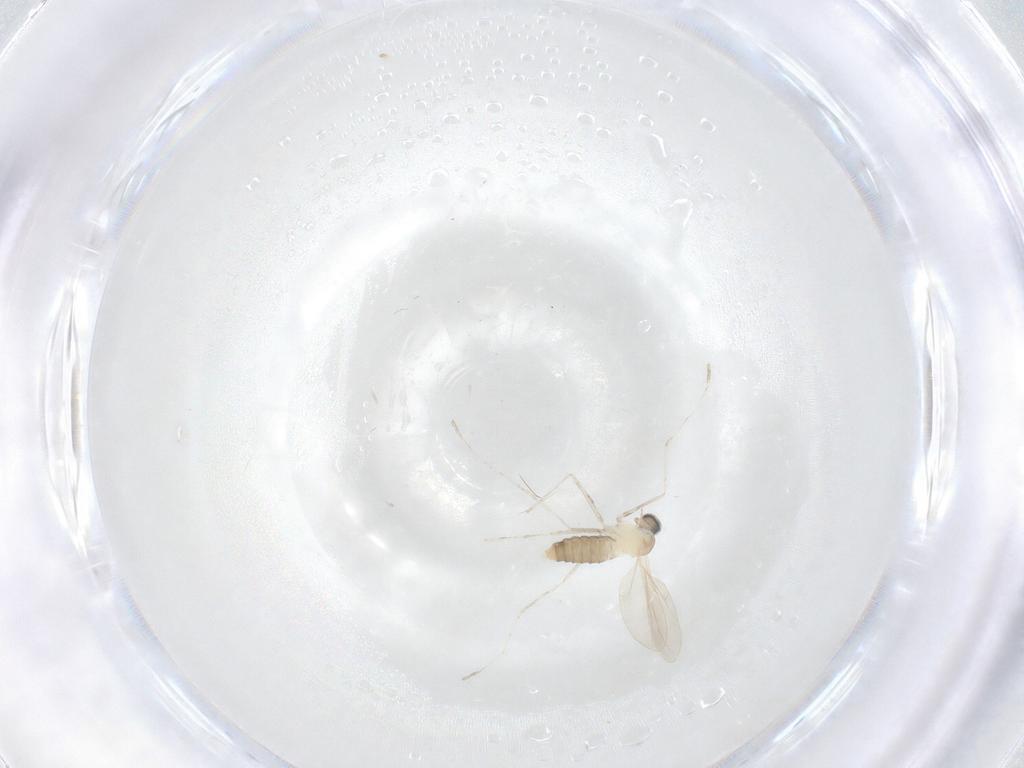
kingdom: Animalia
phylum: Arthropoda
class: Insecta
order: Diptera
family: Cecidomyiidae
